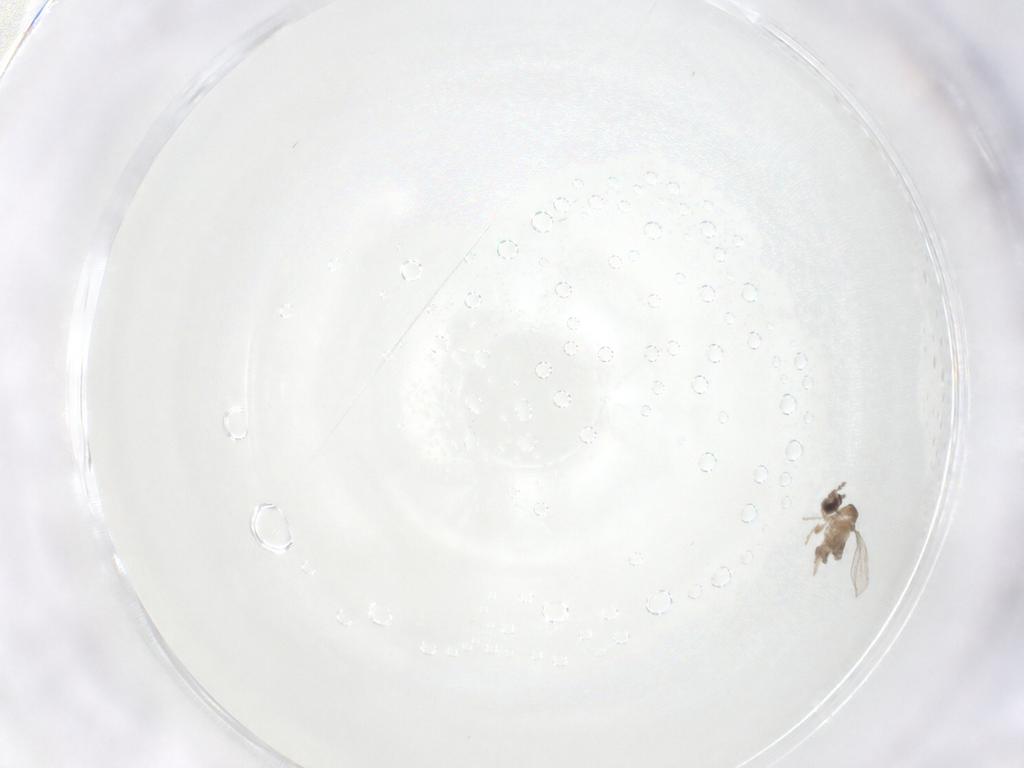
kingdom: Animalia
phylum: Arthropoda
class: Insecta
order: Diptera
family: Cecidomyiidae
